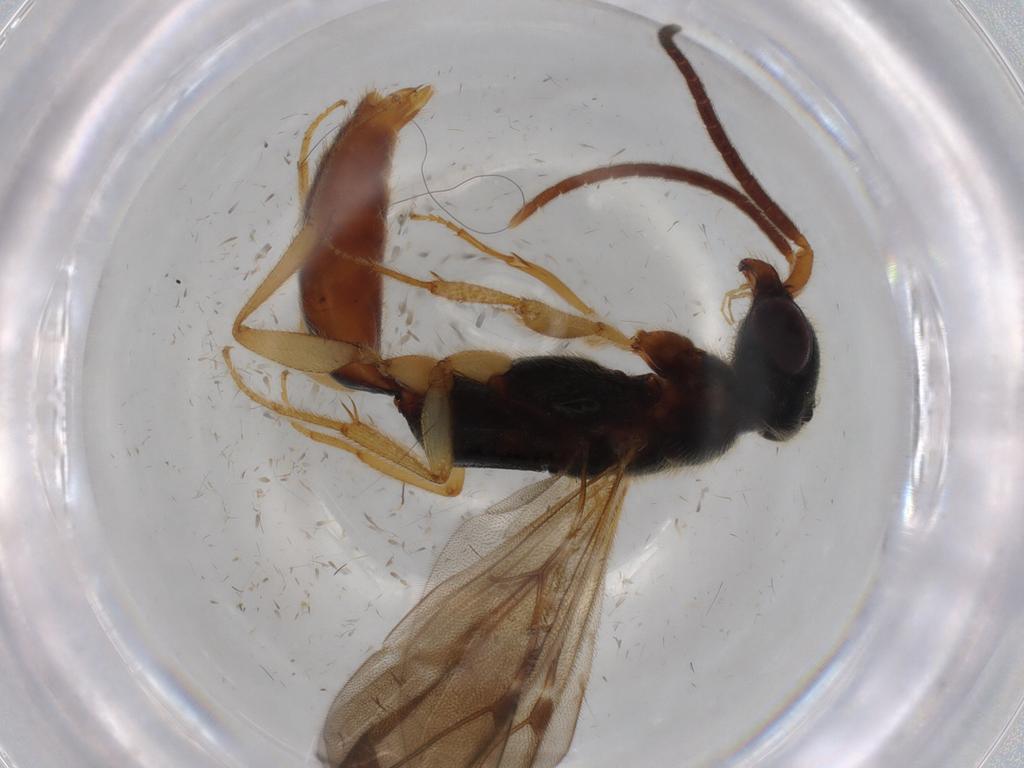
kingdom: Animalia
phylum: Arthropoda
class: Insecta
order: Hymenoptera
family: Bethylidae
